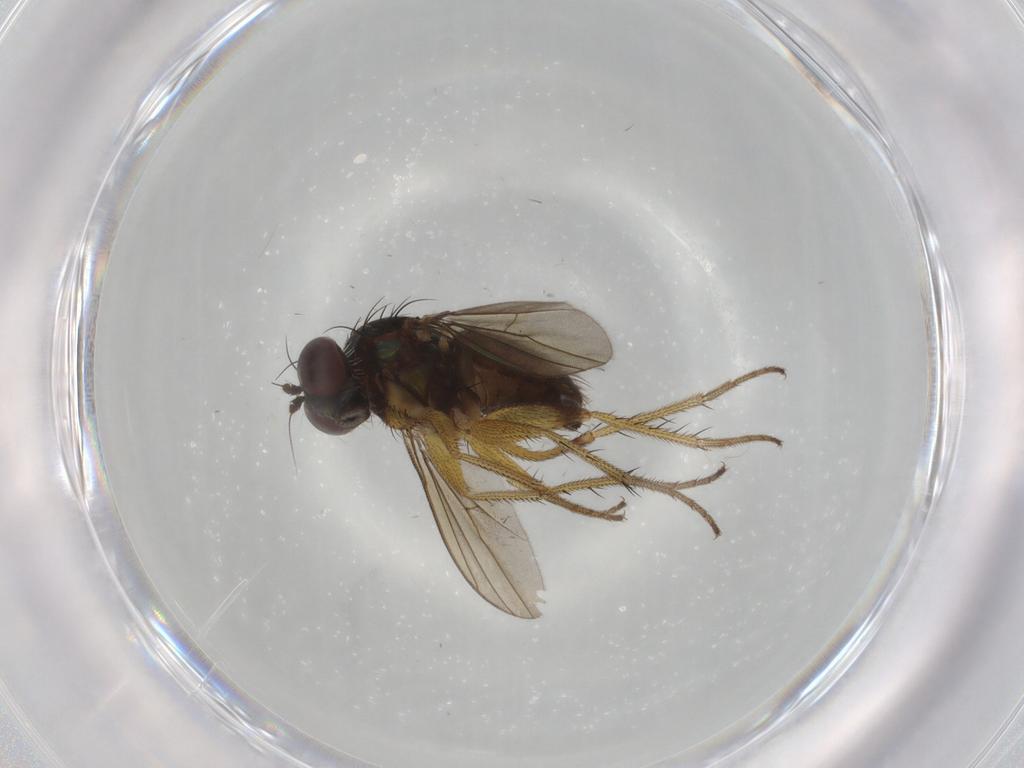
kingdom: Animalia
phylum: Arthropoda
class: Insecta
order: Diptera
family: Dolichopodidae
